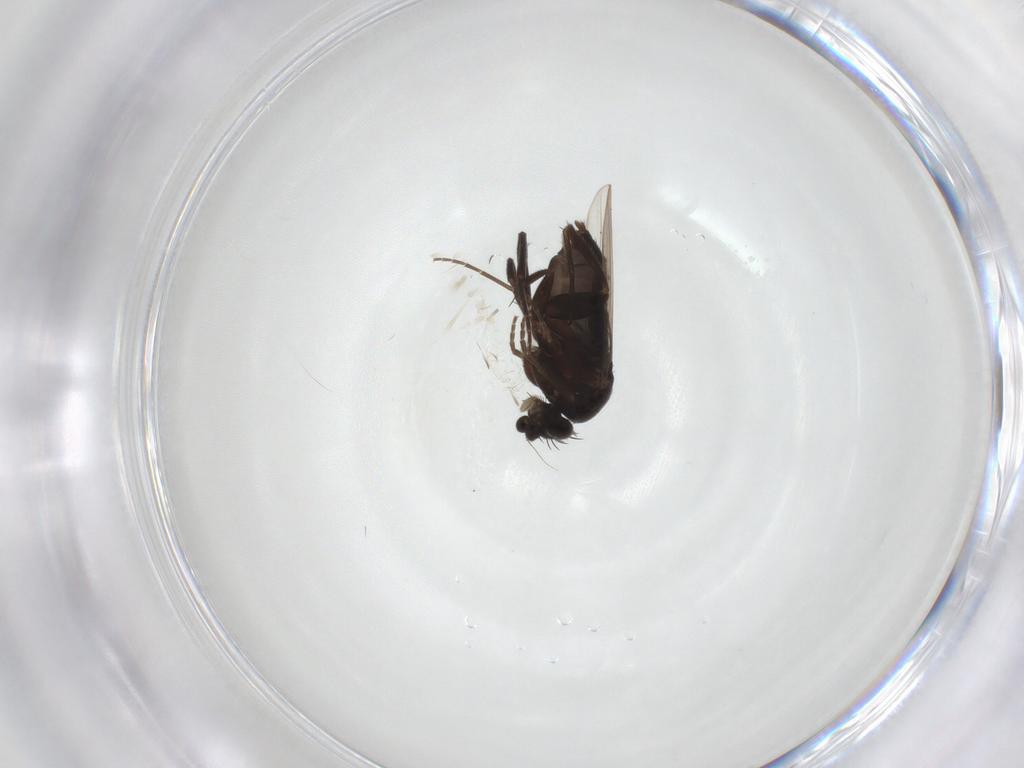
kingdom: Animalia
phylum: Arthropoda
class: Insecta
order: Diptera
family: Phoridae
